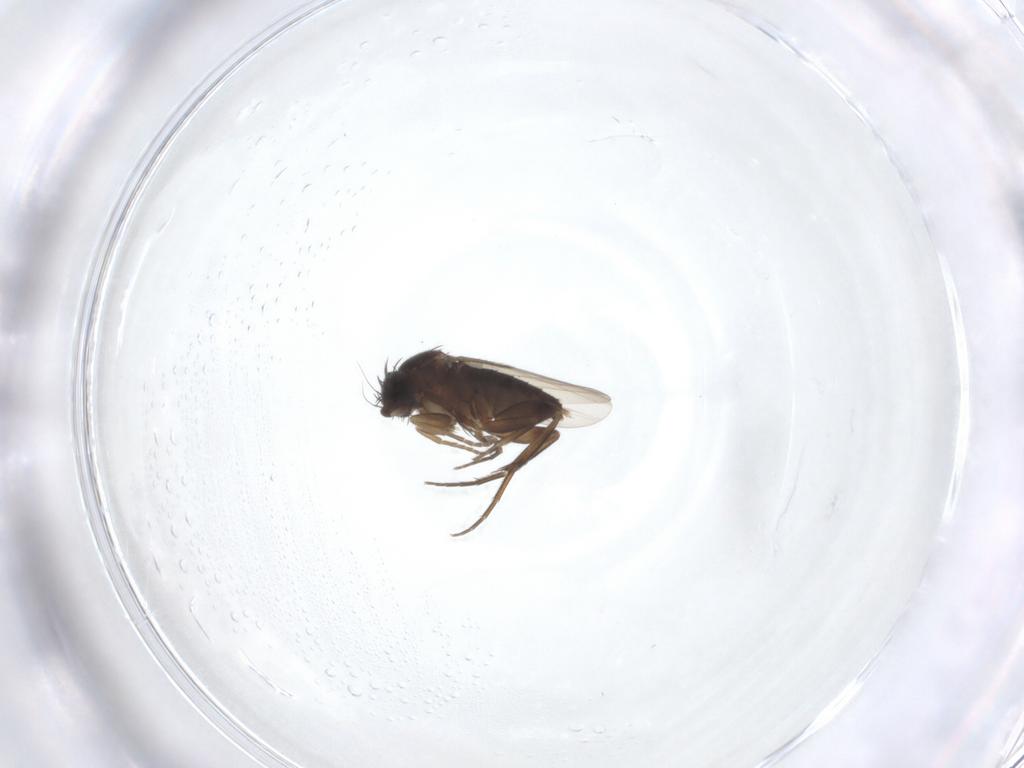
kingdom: Animalia
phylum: Arthropoda
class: Insecta
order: Diptera
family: Phoridae
